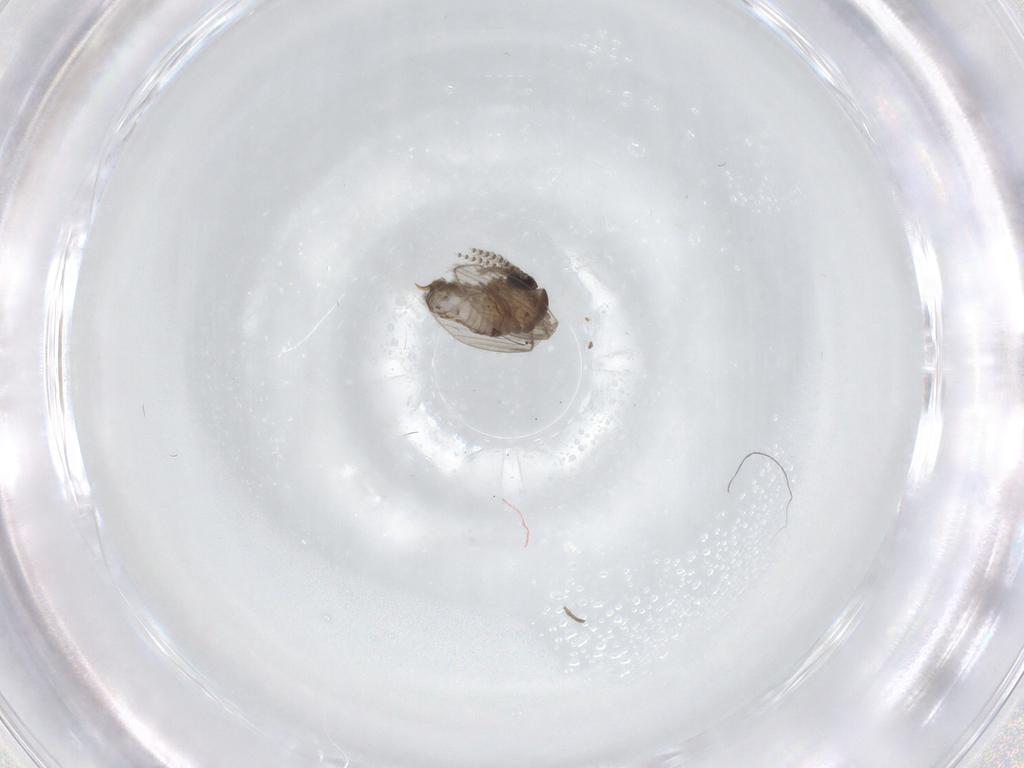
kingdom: Animalia
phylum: Arthropoda
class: Insecta
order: Diptera
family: Psychodidae
